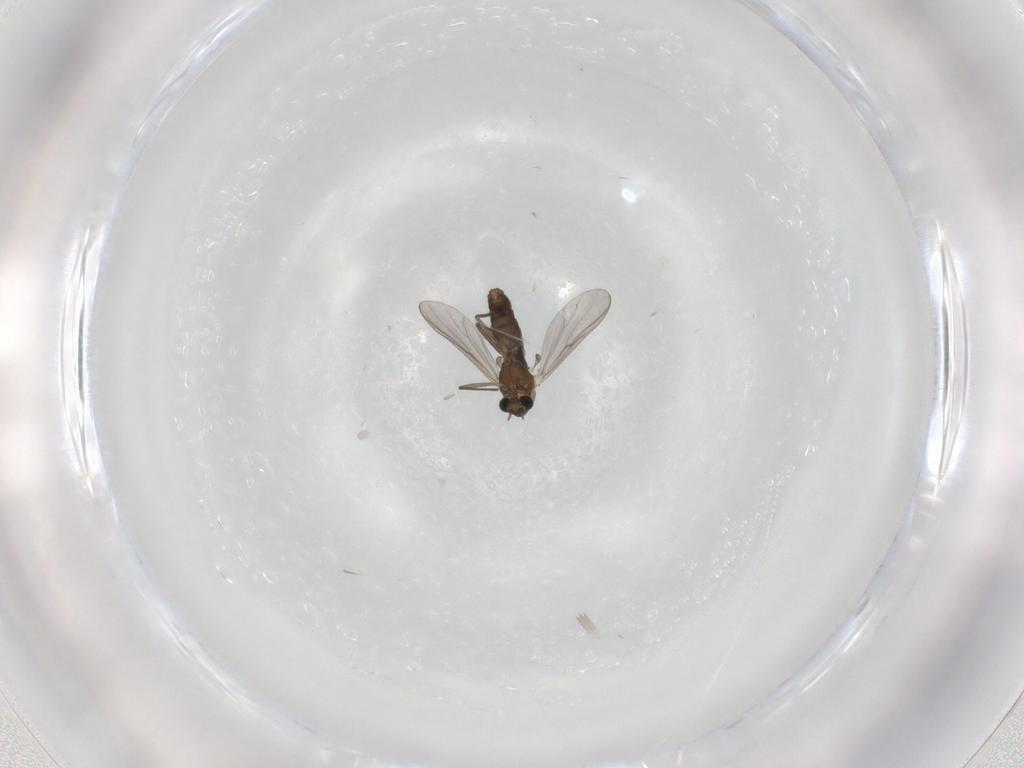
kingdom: Animalia
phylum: Arthropoda
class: Insecta
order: Diptera
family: Chironomidae
